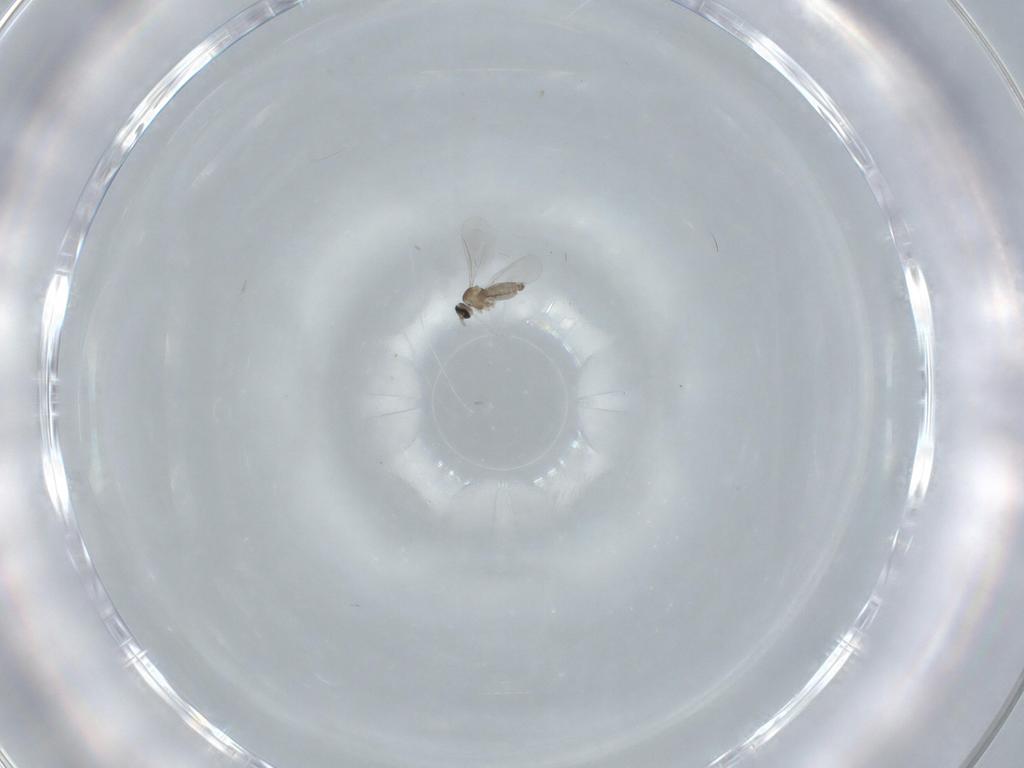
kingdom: Animalia
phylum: Arthropoda
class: Insecta
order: Diptera
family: Cecidomyiidae
